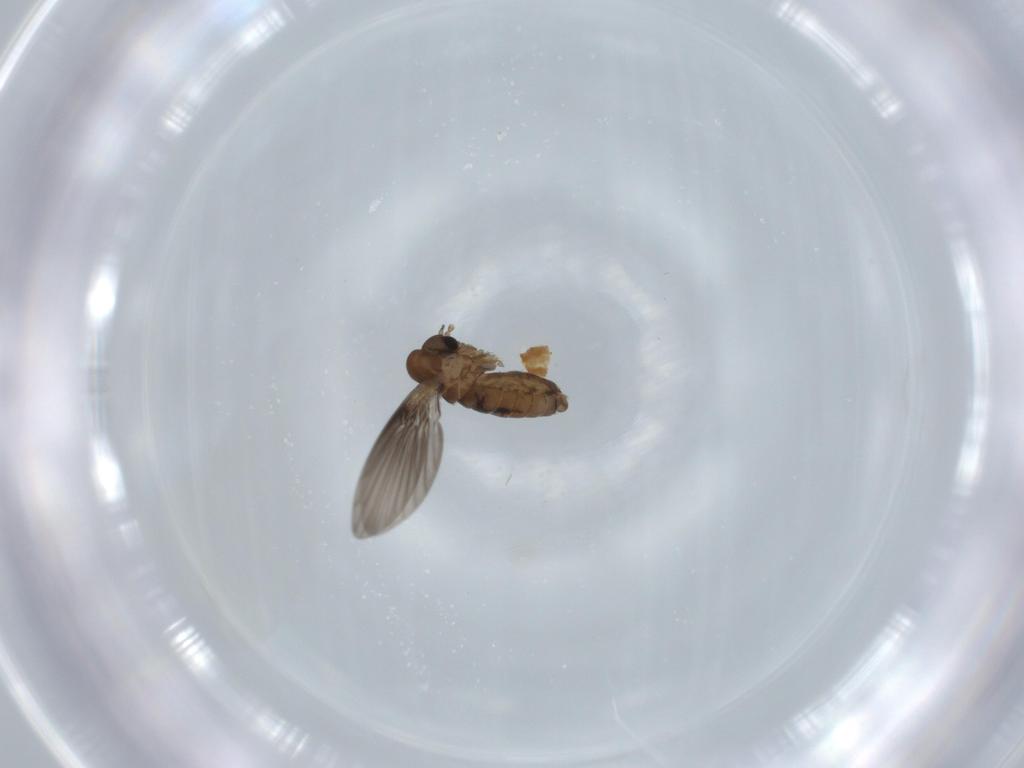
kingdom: Animalia
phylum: Arthropoda
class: Insecta
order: Diptera
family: Psychodidae
